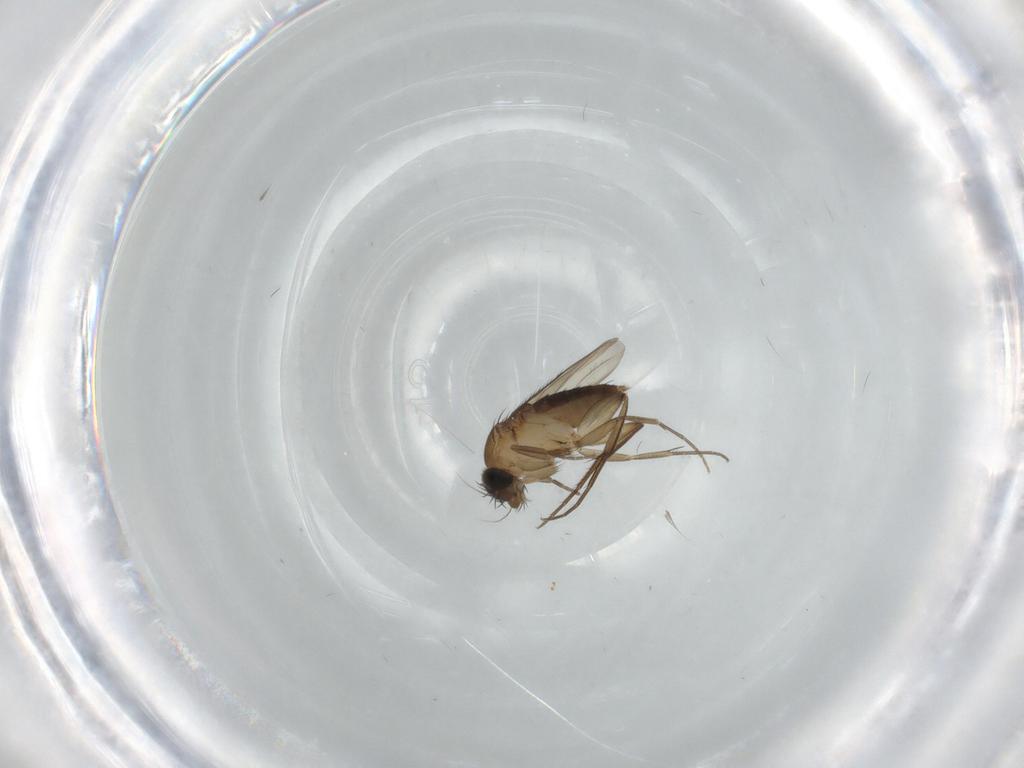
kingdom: Animalia
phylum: Arthropoda
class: Insecta
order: Diptera
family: Phoridae
